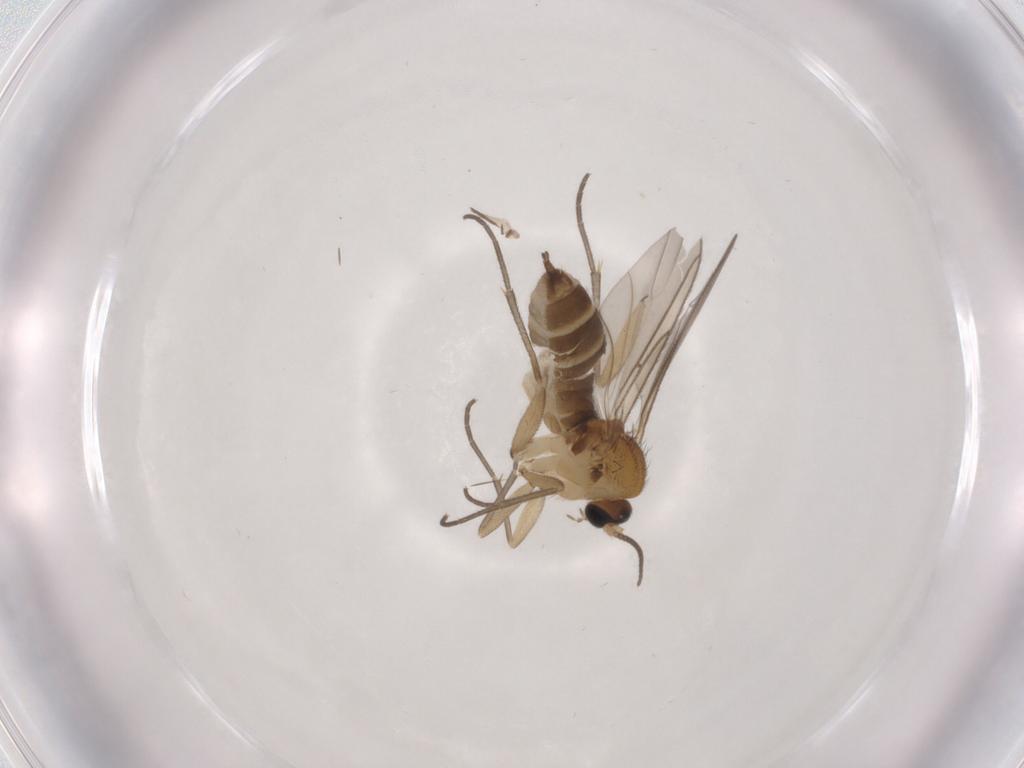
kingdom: Animalia
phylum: Arthropoda
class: Insecta
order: Diptera
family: Sciaridae
